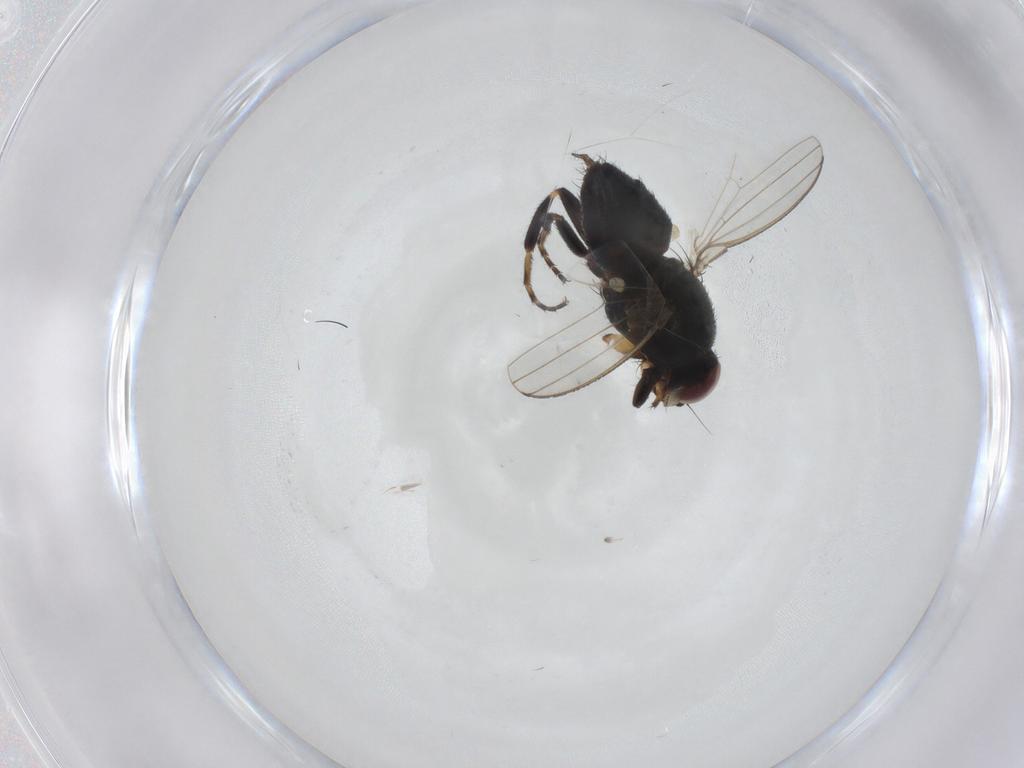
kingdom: Animalia
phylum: Arthropoda
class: Insecta
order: Diptera
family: Milichiidae
